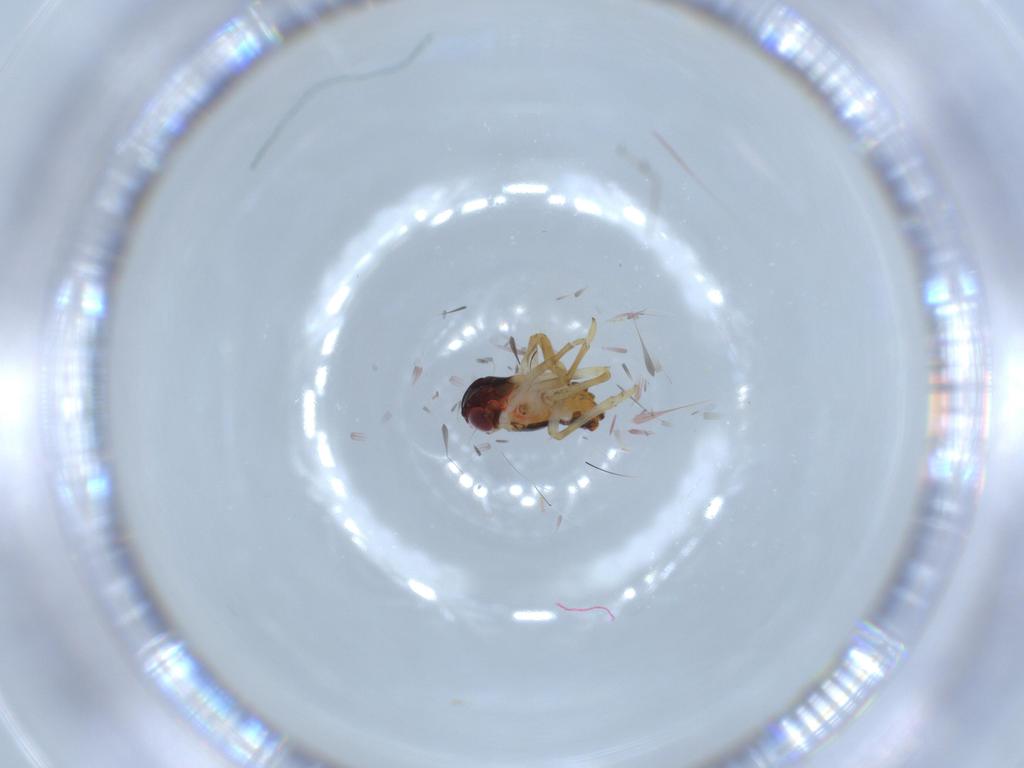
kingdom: Animalia
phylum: Arthropoda
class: Insecta
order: Hemiptera
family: Issidae
